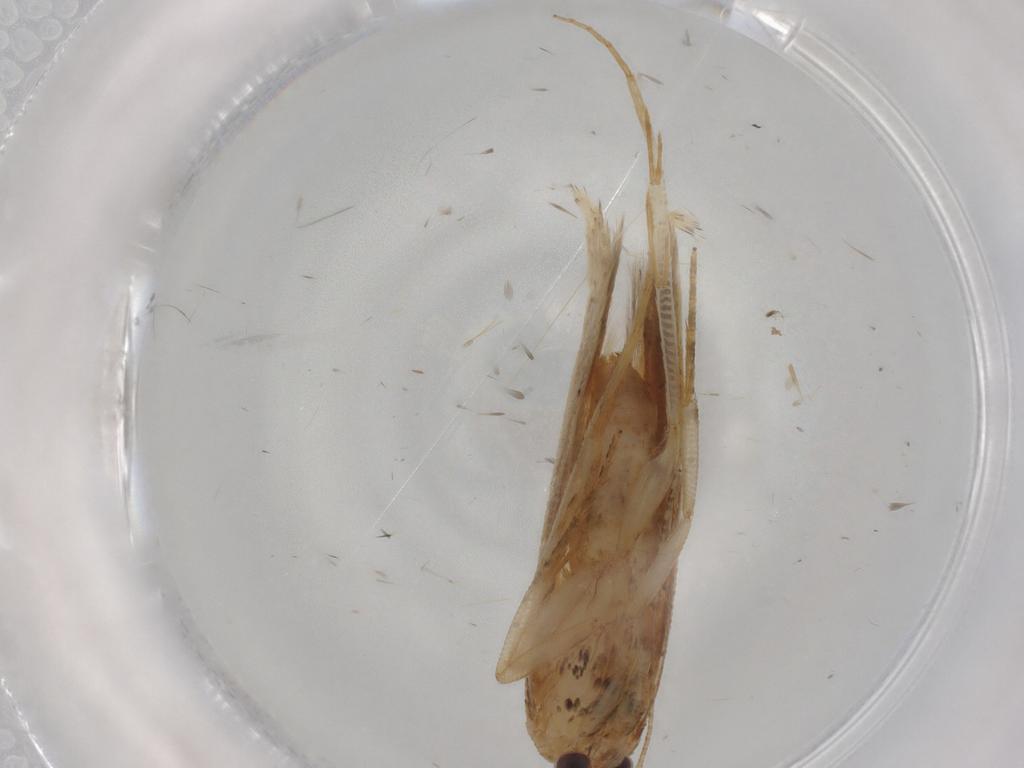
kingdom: Animalia
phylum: Arthropoda
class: Insecta
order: Lepidoptera
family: Gelechiidae
